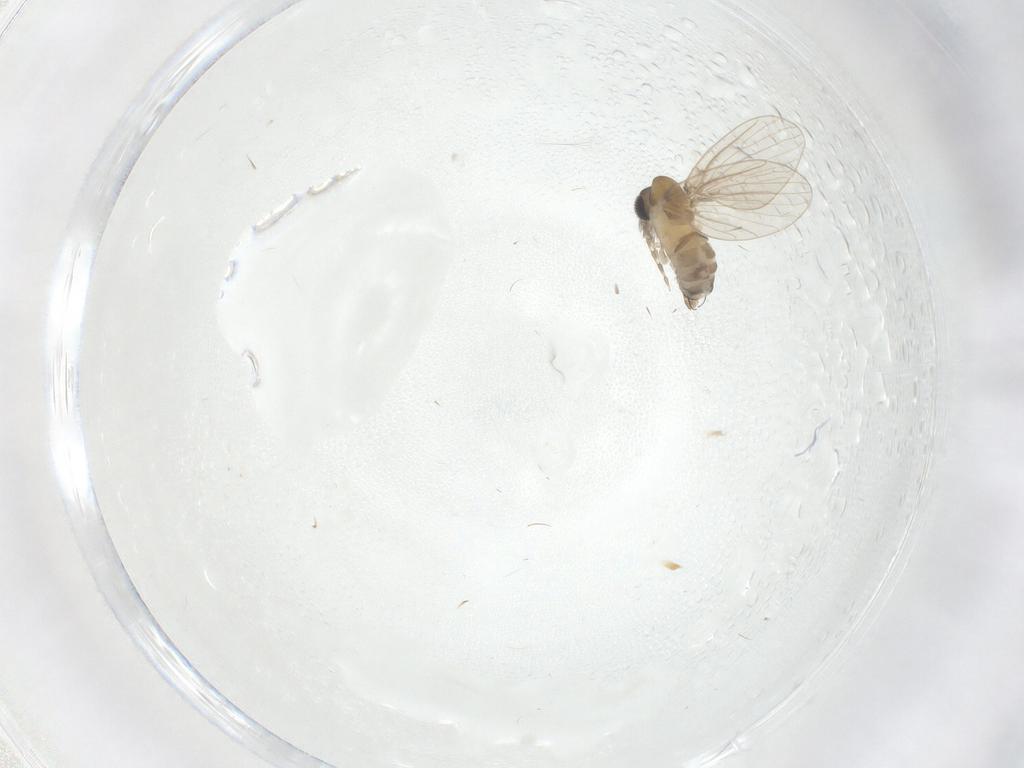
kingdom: Animalia
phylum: Arthropoda
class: Insecta
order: Diptera
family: Psychodidae
